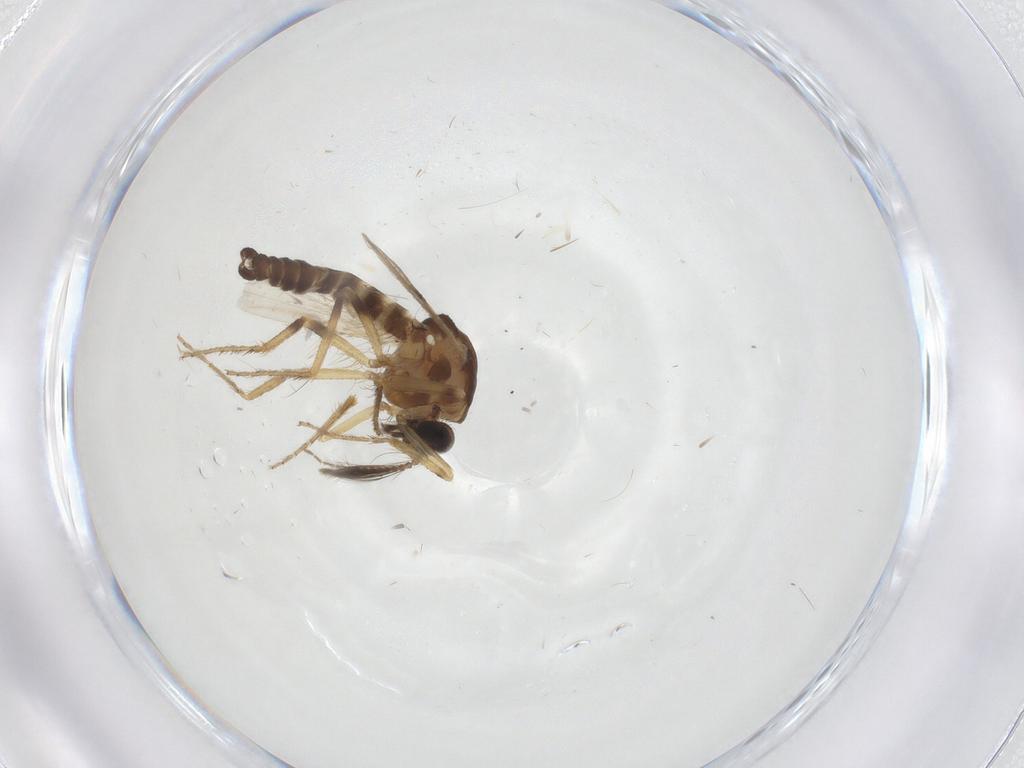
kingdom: Animalia
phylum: Arthropoda
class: Insecta
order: Diptera
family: Ceratopogonidae
